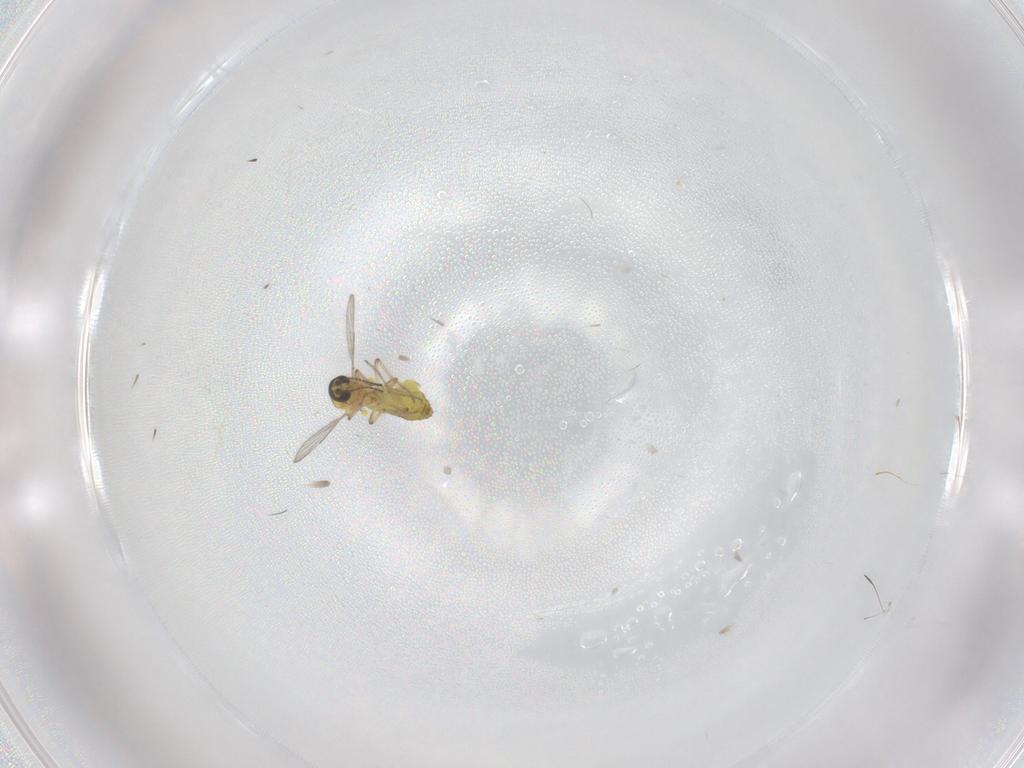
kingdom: Animalia
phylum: Arthropoda
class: Insecta
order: Diptera
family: Ceratopogonidae
